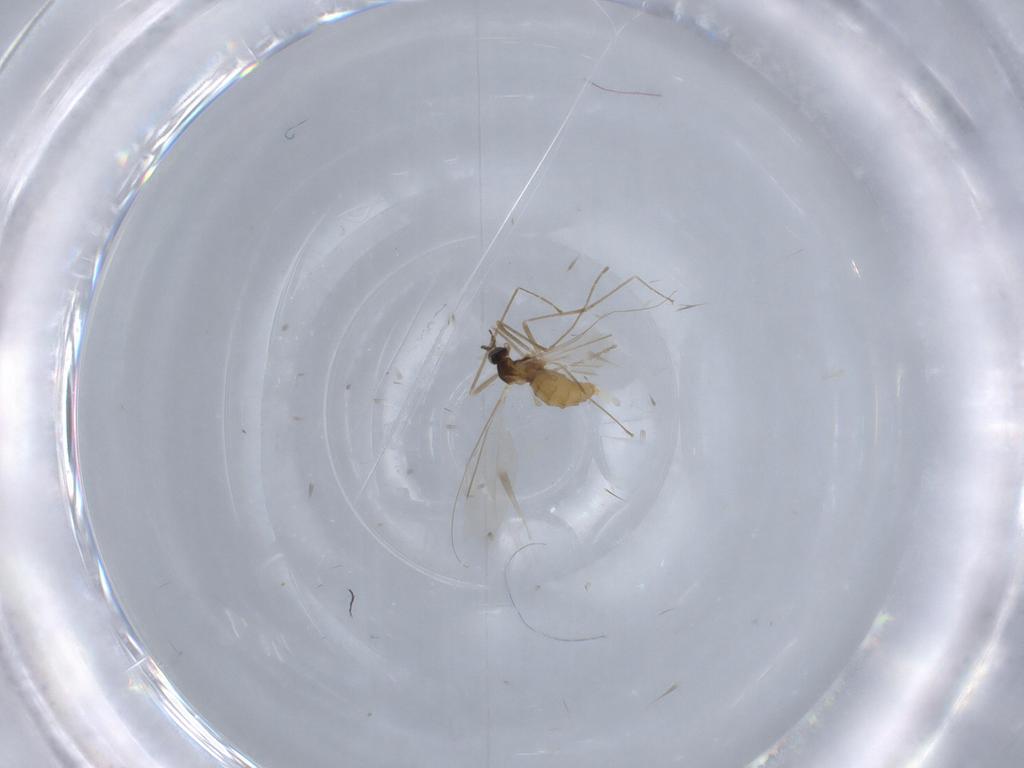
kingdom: Animalia
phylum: Arthropoda
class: Insecta
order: Diptera
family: Cecidomyiidae
